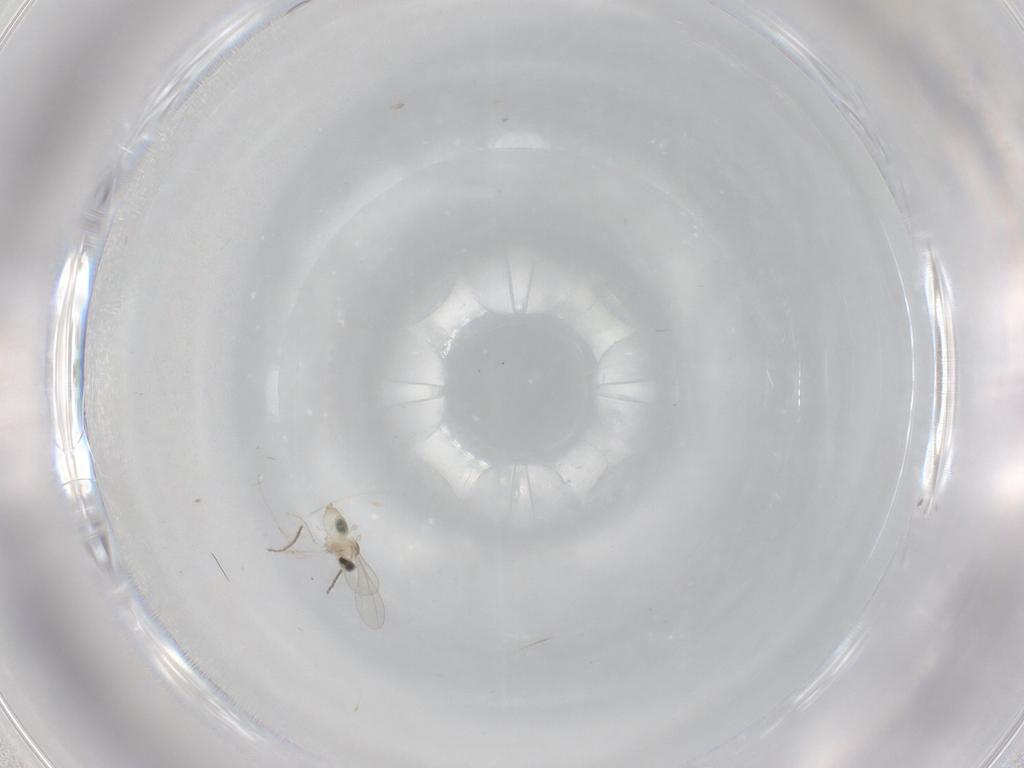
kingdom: Animalia
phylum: Arthropoda
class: Insecta
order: Diptera
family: Cecidomyiidae
